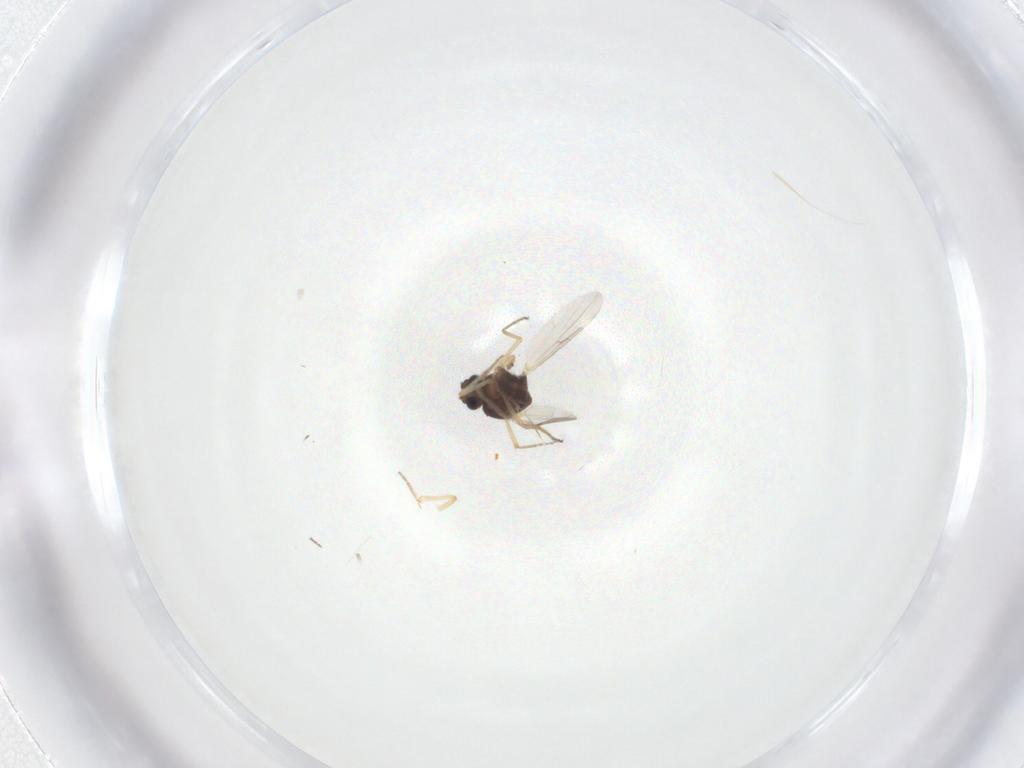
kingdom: Animalia
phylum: Arthropoda
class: Insecta
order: Diptera
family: Ceratopogonidae
